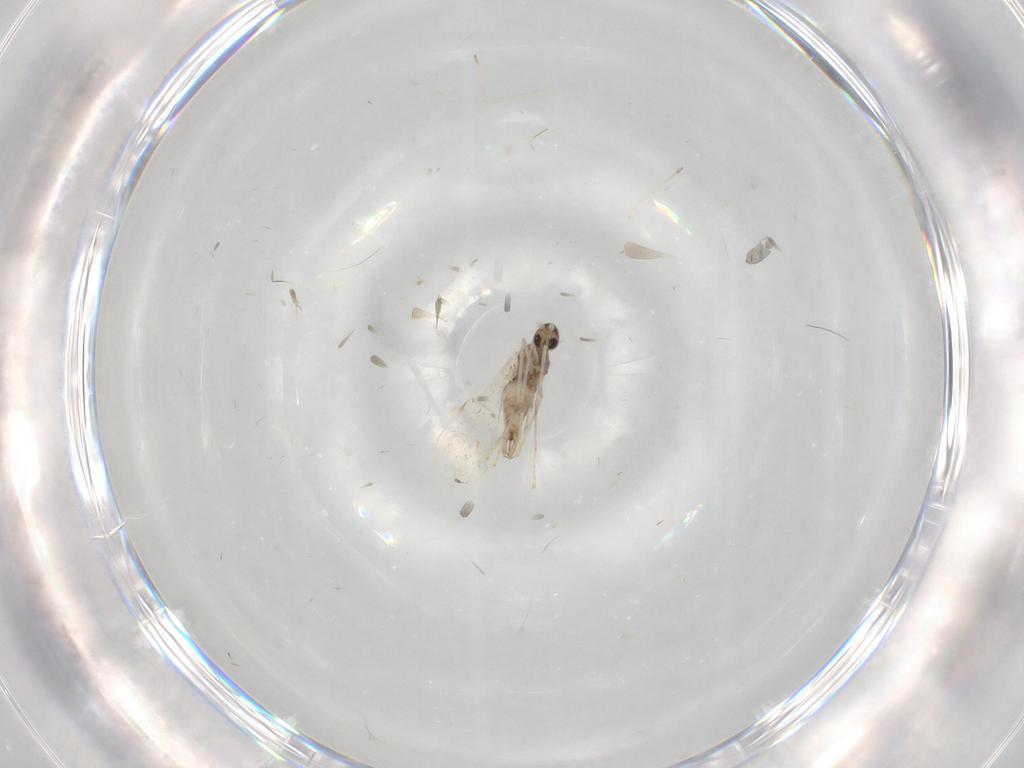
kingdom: Animalia
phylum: Arthropoda
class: Insecta
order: Diptera
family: Cecidomyiidae
